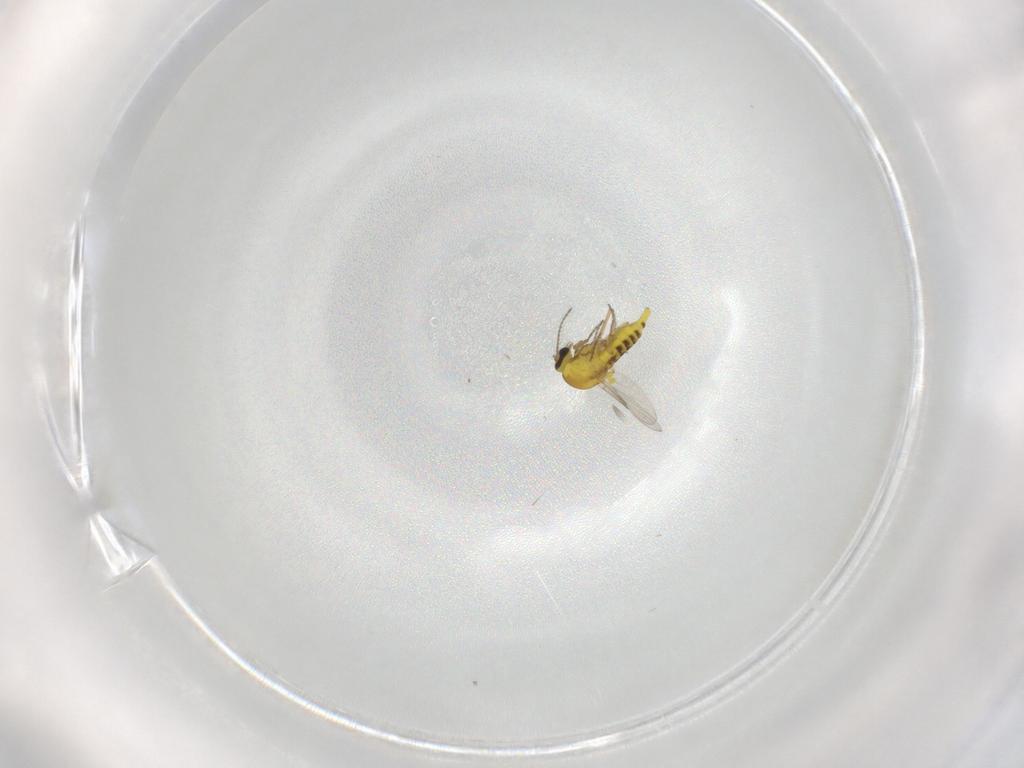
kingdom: Animalia
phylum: Arthropoda
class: Insecta
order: Diptera
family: Ceratopogonidae
